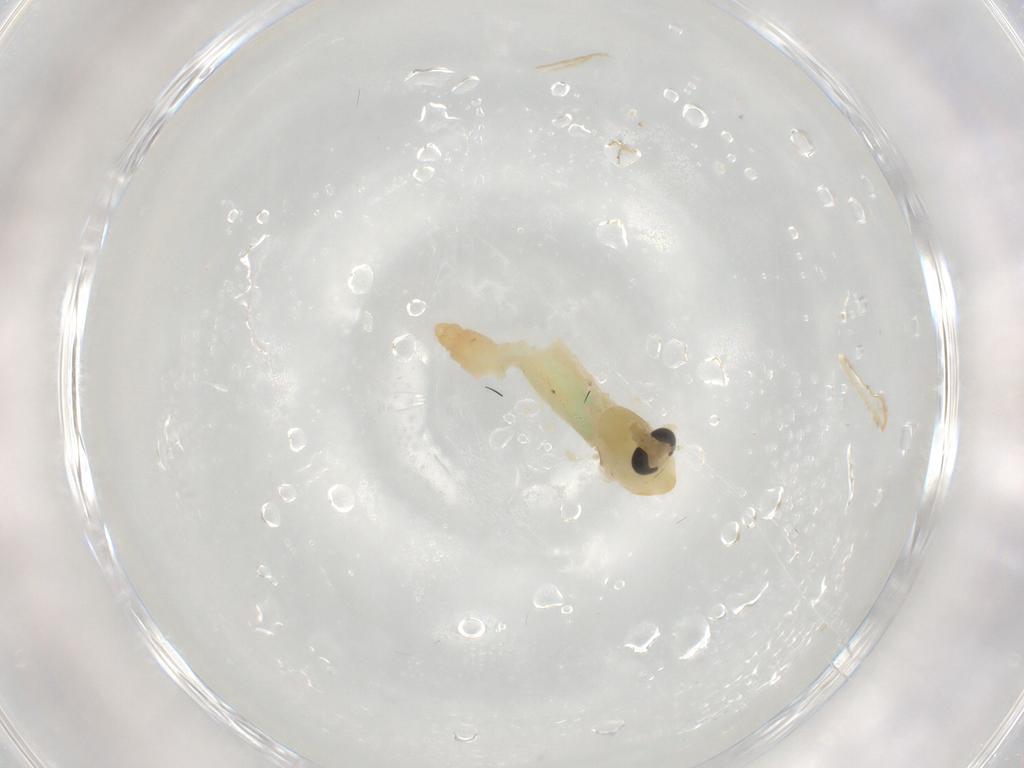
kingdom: Animalia
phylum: Arthropoda
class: Insecta
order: Diptera
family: Chironomidae
